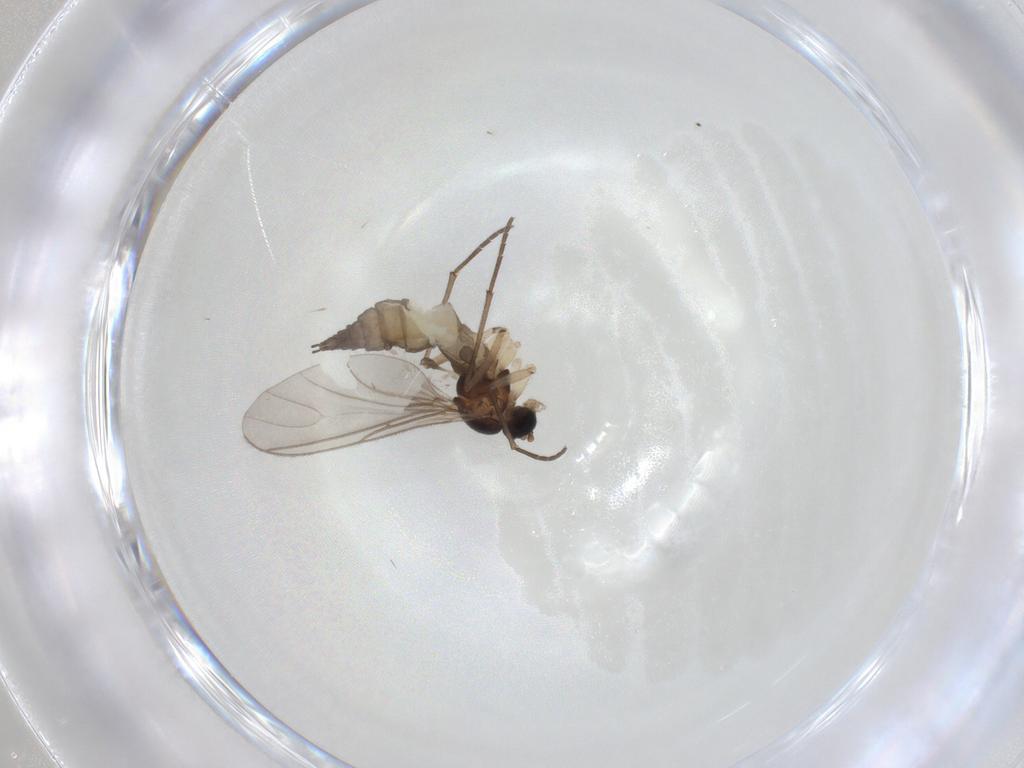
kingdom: Animalia
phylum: Arthropoda
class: Insecta
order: Diptera
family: Sciaridae
